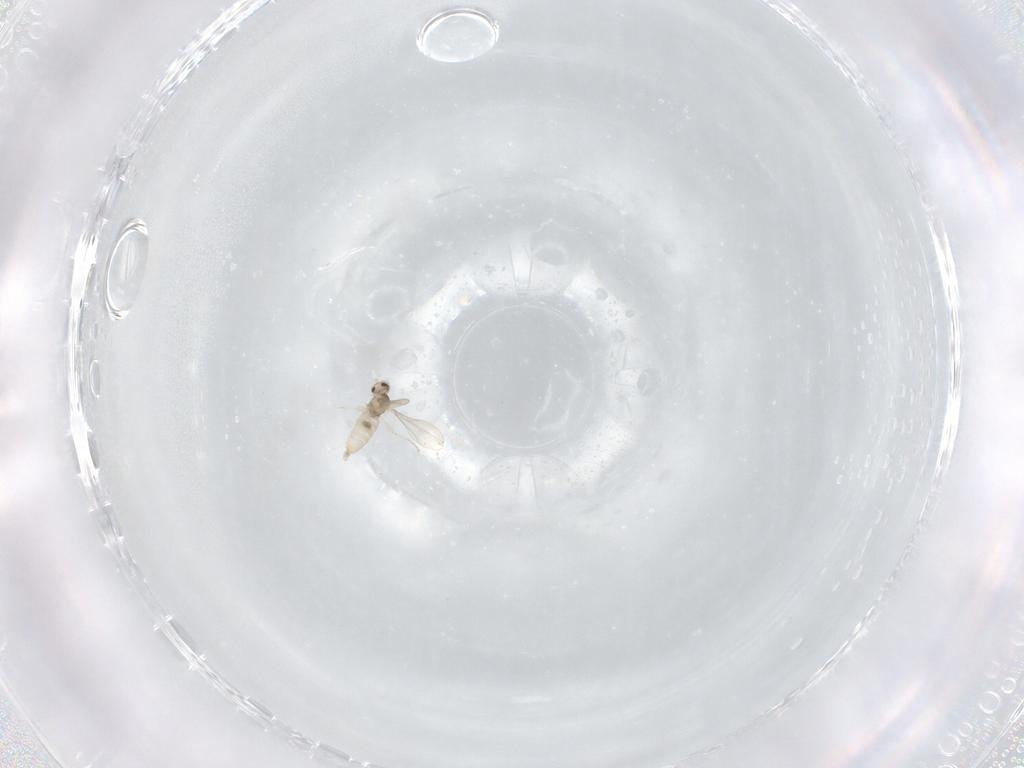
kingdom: Animalia
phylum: Arthropoda
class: Insecta
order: Diptera
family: Cecidomyiidae
